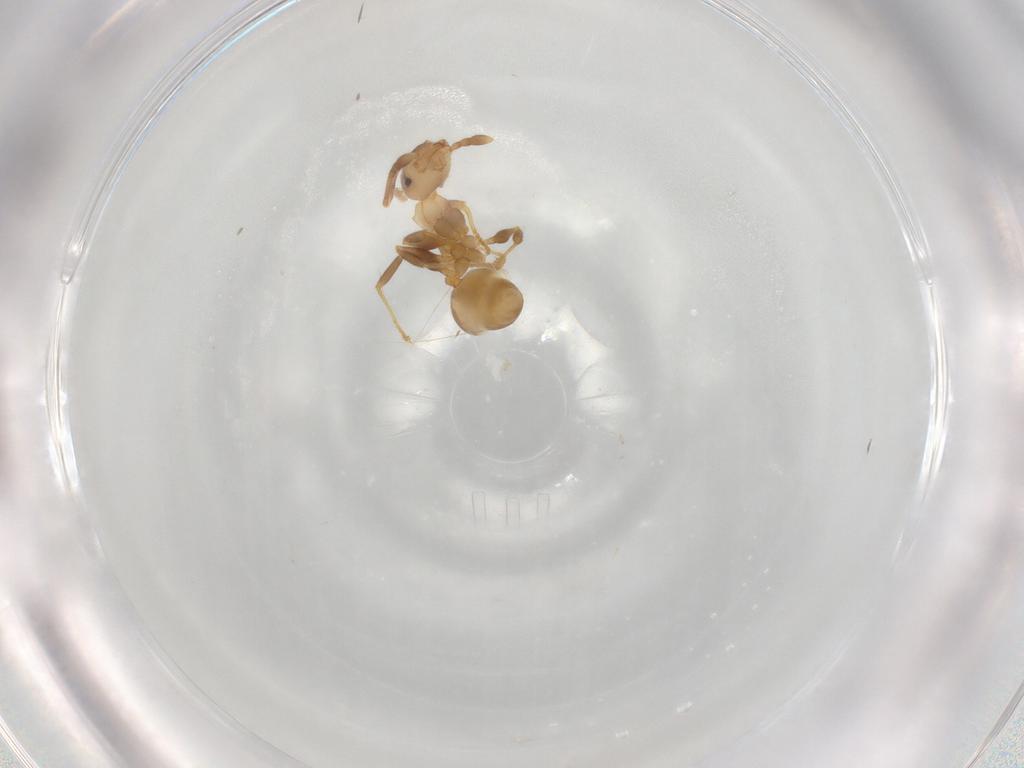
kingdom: Animalia
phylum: Arthropoda
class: Insecta
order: Hymenoptera
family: Formicidae
